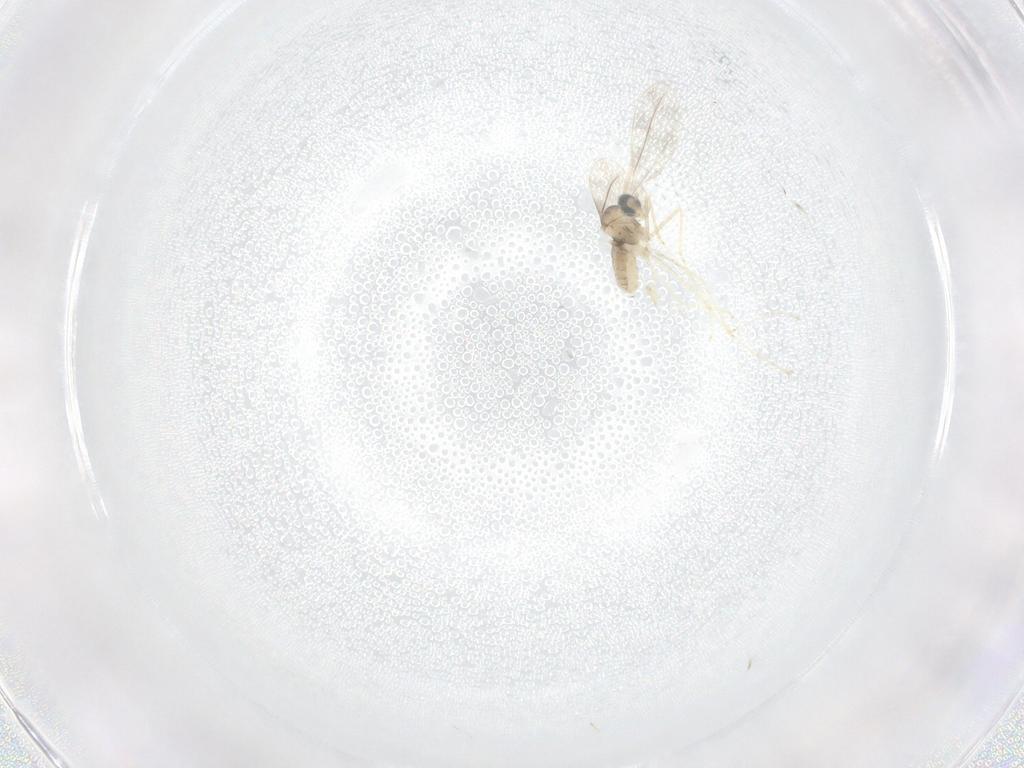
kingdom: Animalia
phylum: Arthropoda
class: Insecta
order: Diptera
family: Cecidomyiidae
